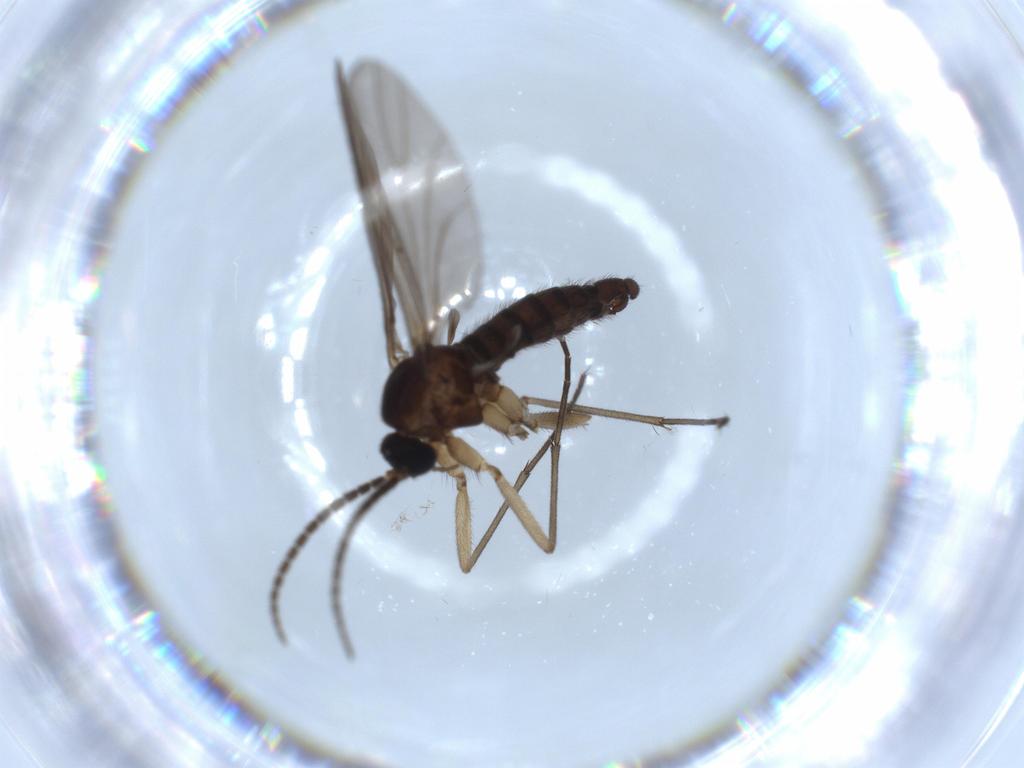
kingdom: Animalia
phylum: Arthropoda
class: Insecta
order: Diptera
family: Sciaridae
